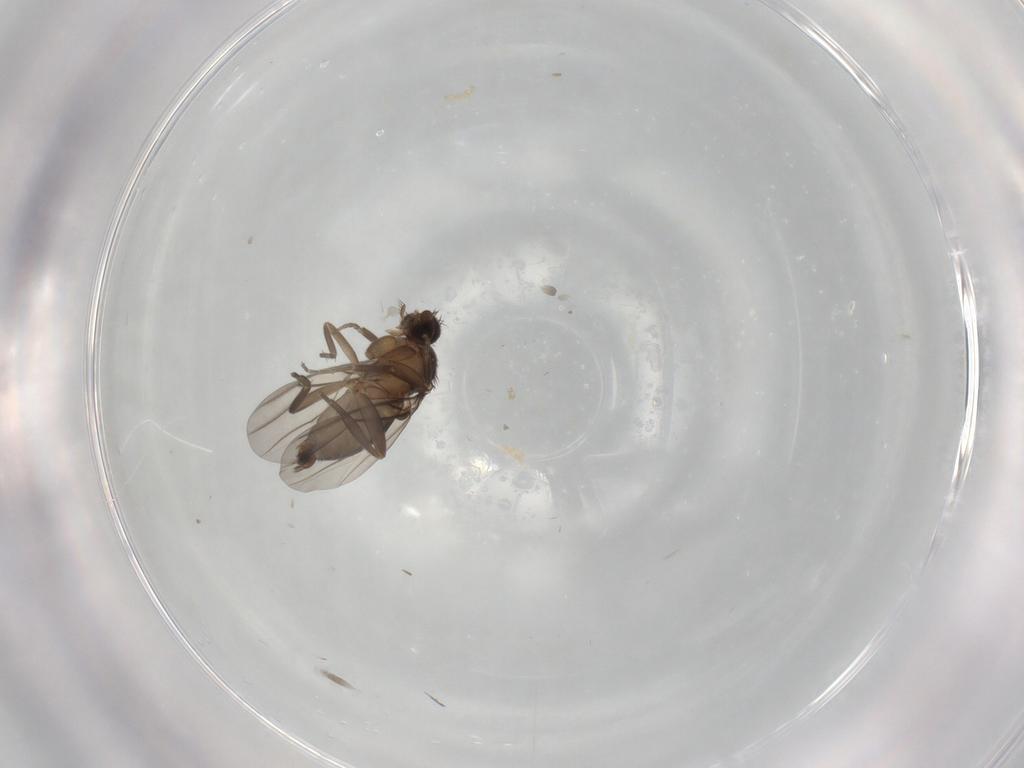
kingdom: Animalia
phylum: Arthropoda
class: Insecta
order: Diptera
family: Phoridae
